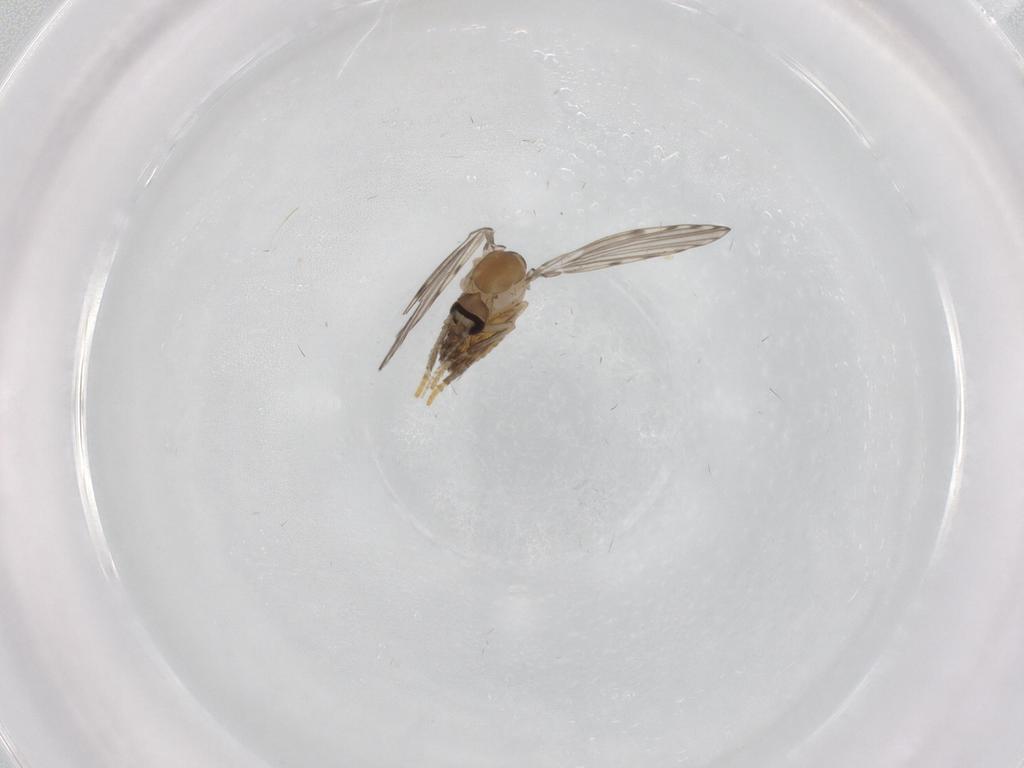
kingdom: Animalia
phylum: Arthropoda
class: Insecta
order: Diptera
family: Psychodidae
